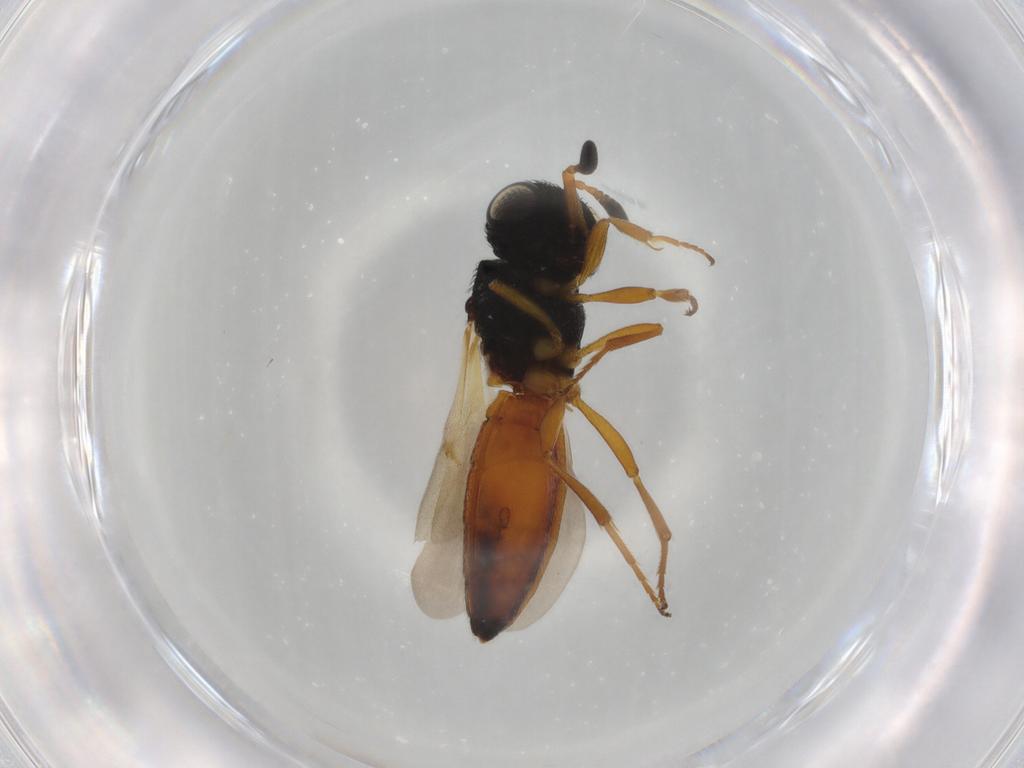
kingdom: Animalia
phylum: Arthropoda
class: Insecta
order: Hymenoptera
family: Scelionidae
